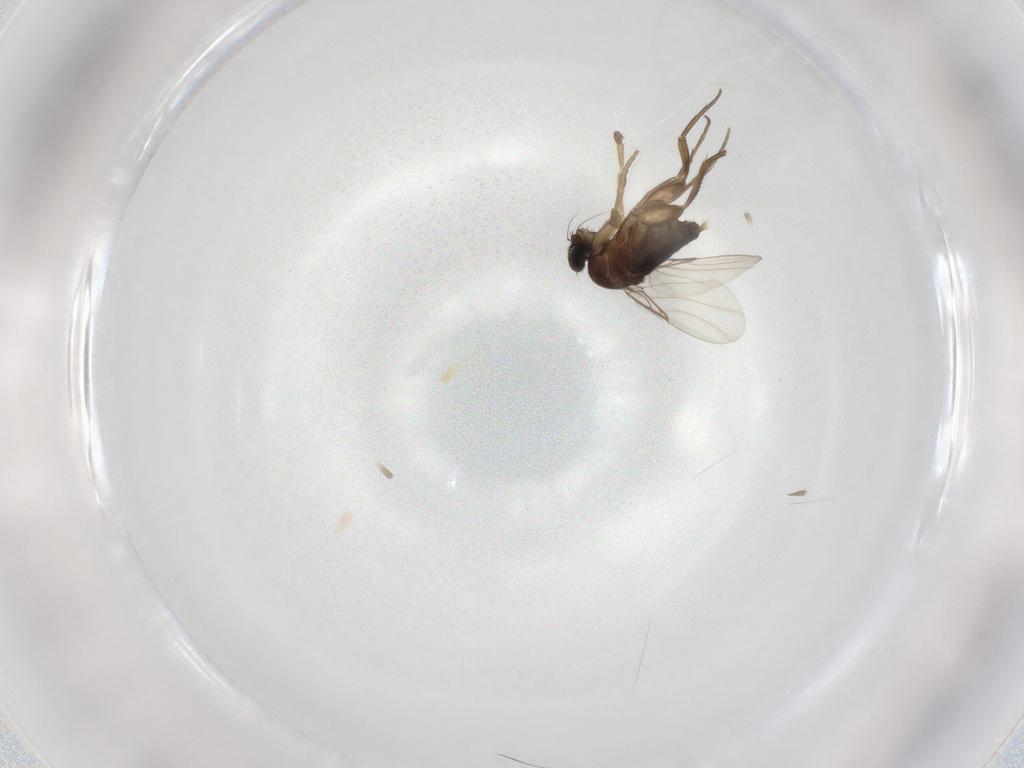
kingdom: Animalia
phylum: Arthropoda
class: Insecta
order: Diptera
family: Phoridae
